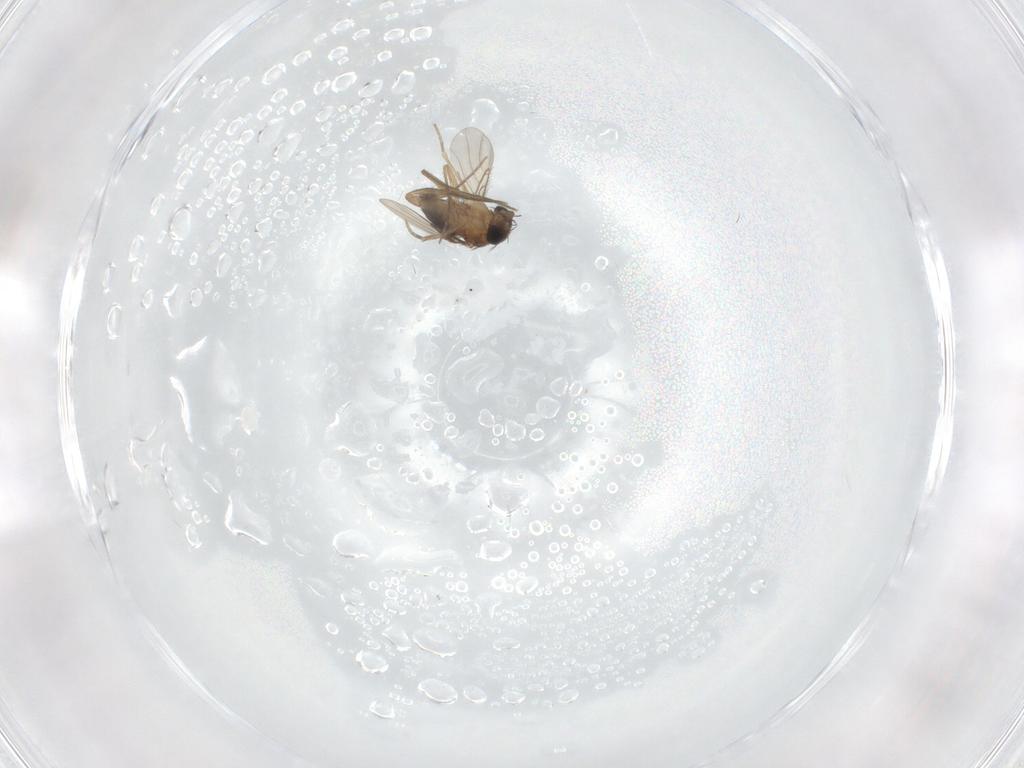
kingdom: Animalia
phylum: Arthropoda
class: Insecta
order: Diptera
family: Phoridae
